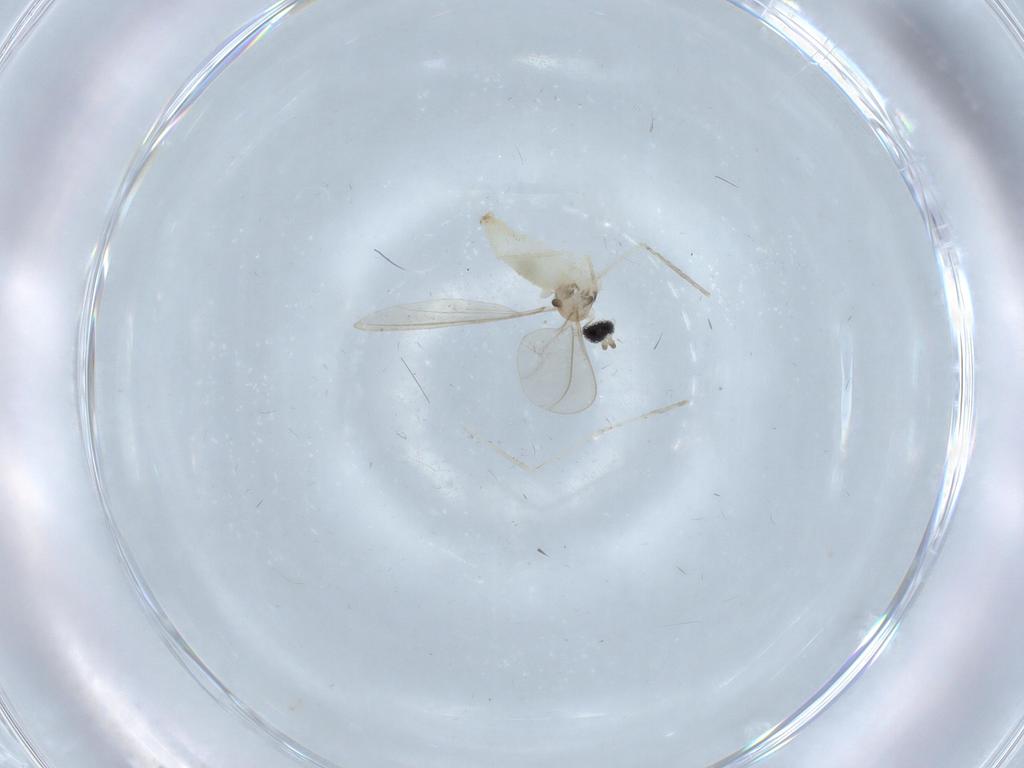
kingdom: Animalia
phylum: Arthropoda
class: Insecta
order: Diptera
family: Cecidomyiidae
